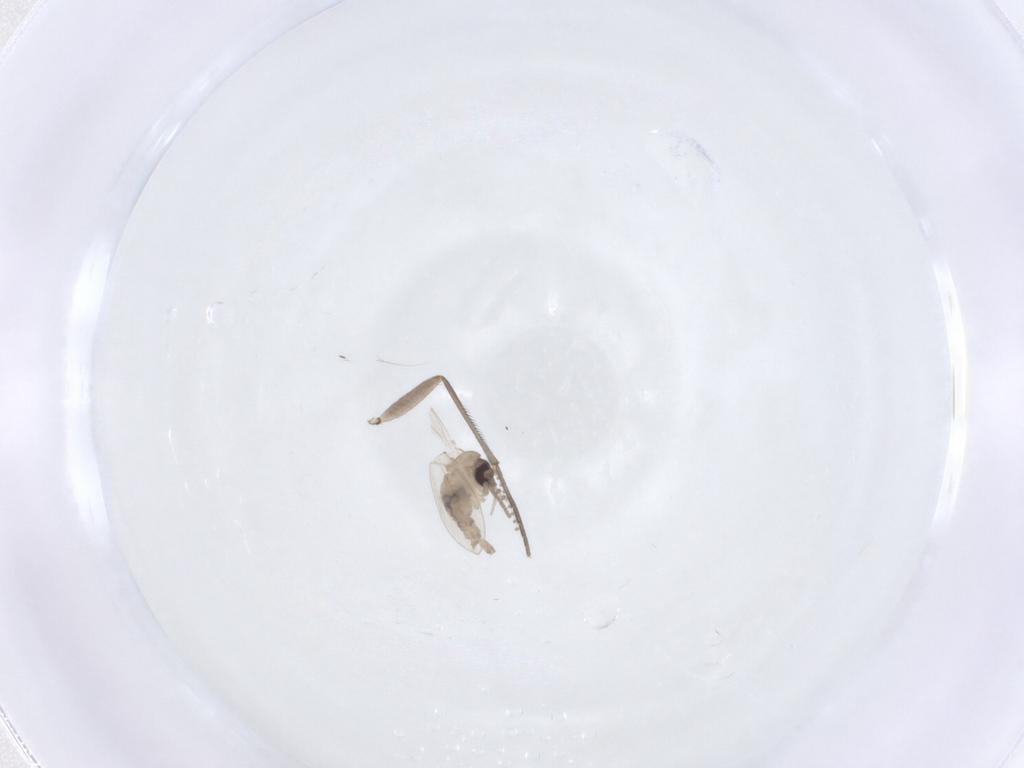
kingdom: Animalia
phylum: Arthropoda
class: Insecta
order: Diptera
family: Psychodidae
